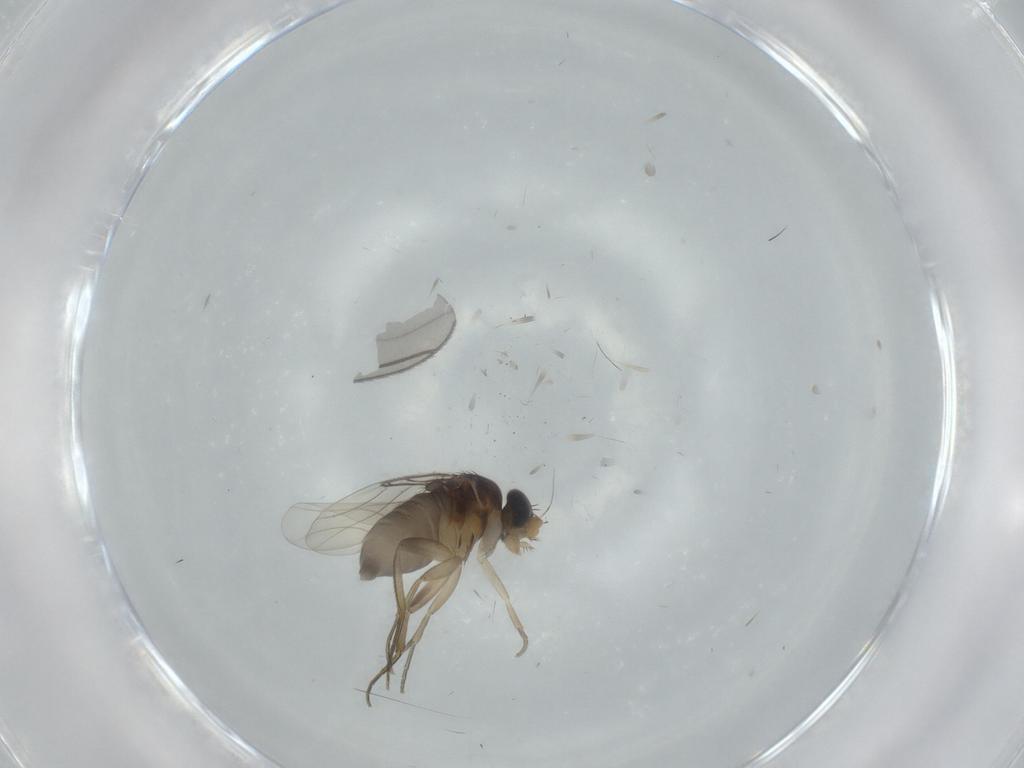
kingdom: Animalia
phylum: Arthropoda
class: Insecta
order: Diptera
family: Phoridae
